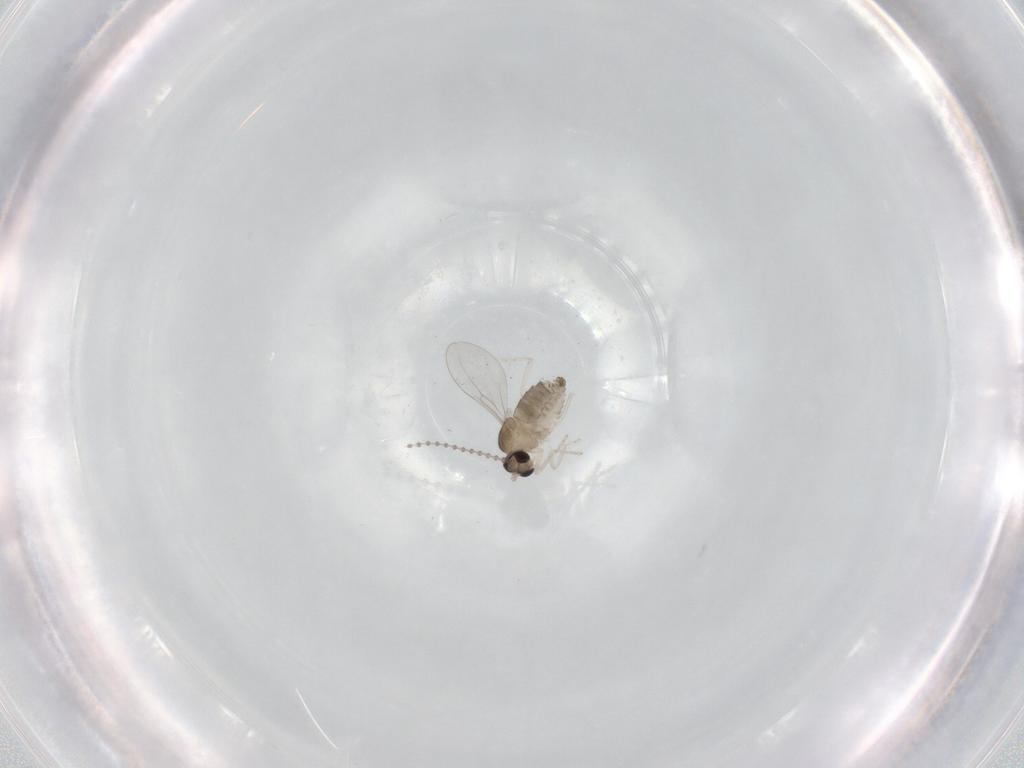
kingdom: Animalia
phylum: Arthropoda
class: Insecta
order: Diptera
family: Cecidomyiidae
